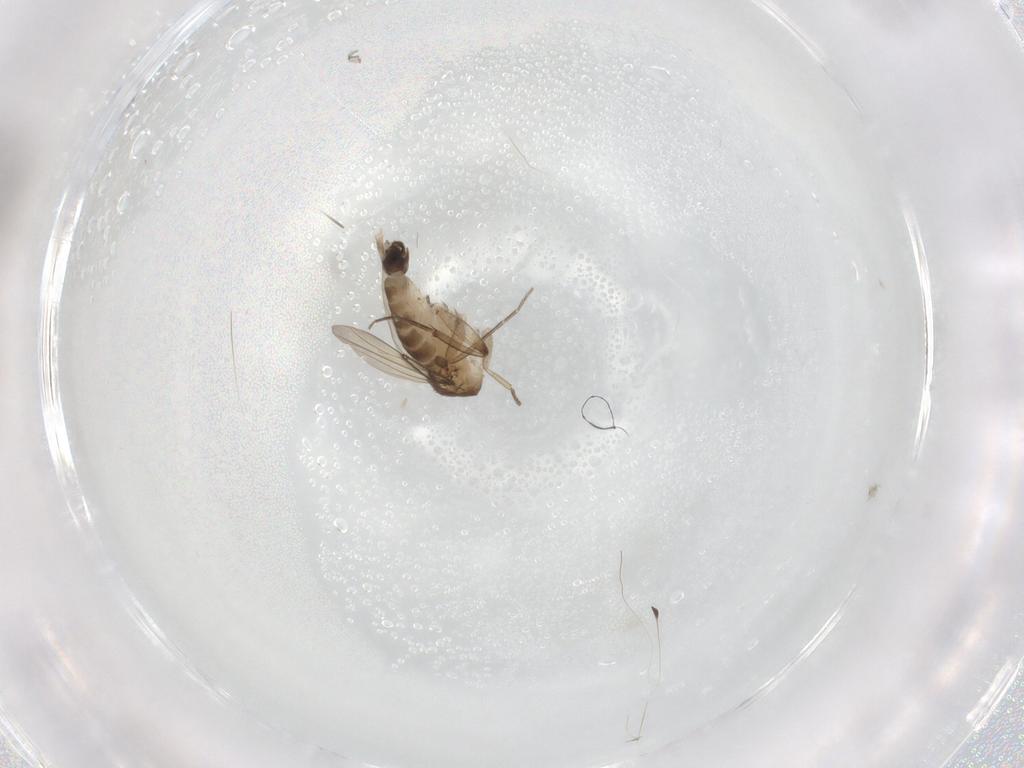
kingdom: Animalia
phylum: Arthropoda
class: Insecta
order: Diptera
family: Phoridae
